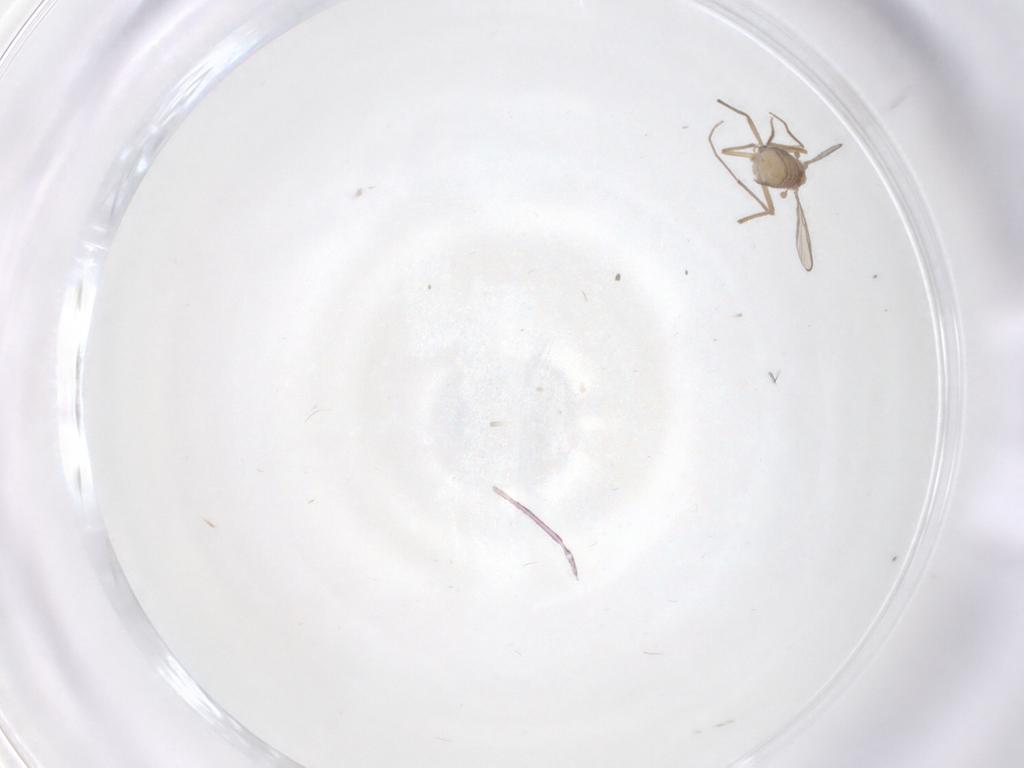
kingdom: Animalia
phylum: Arthropoda
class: Insecta
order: Diptera
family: Chironomidae
